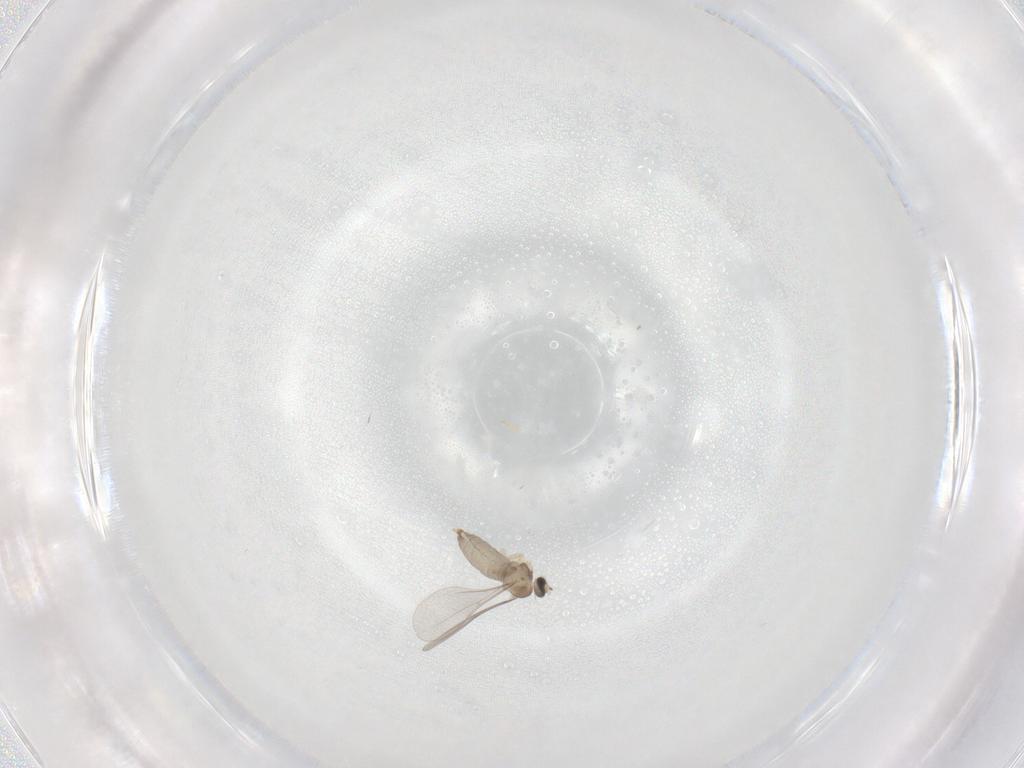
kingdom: Animalia
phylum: Arthropoda
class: Insecta
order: Diptera
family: Cecidomyiidae
